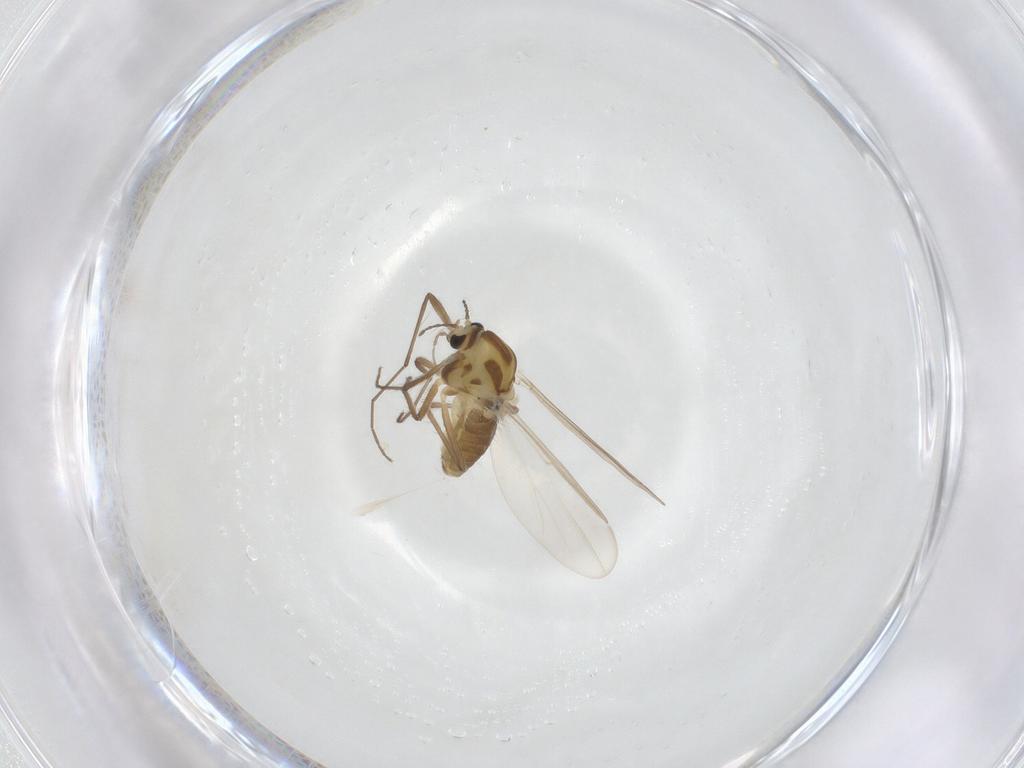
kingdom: Animalia
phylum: Arthropoda
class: Insecta
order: Diptera
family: Chironomidae
